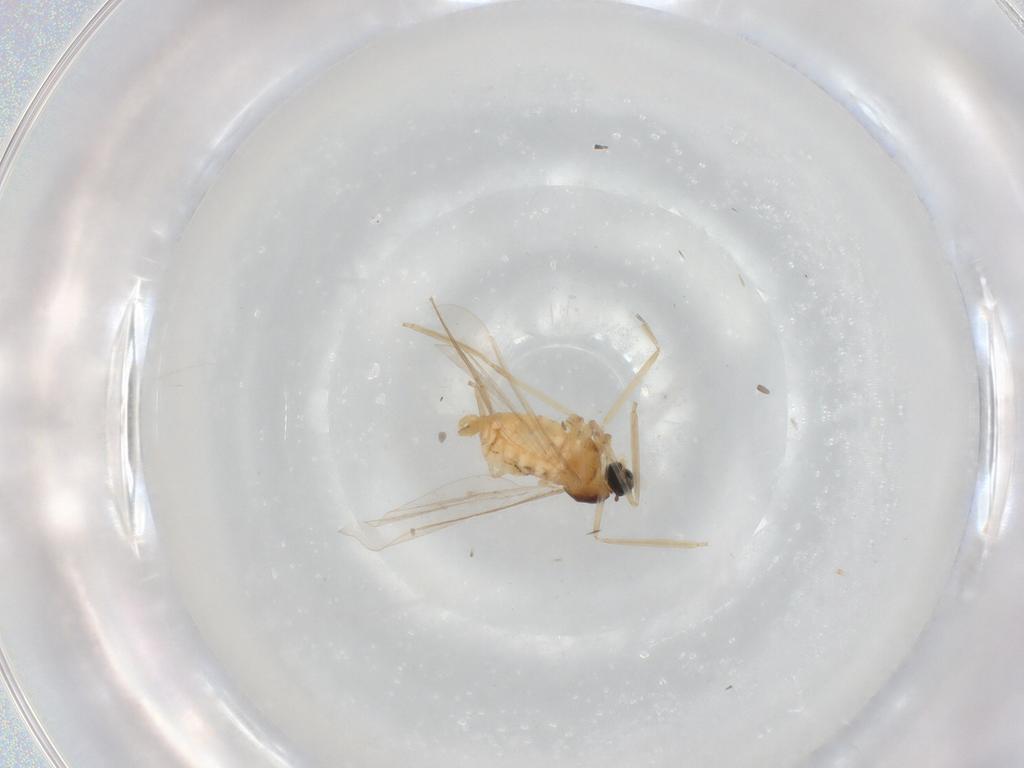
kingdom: Animalia
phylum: Arthropoda
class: Insecta
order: Diptera
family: Cecidomyiidae
